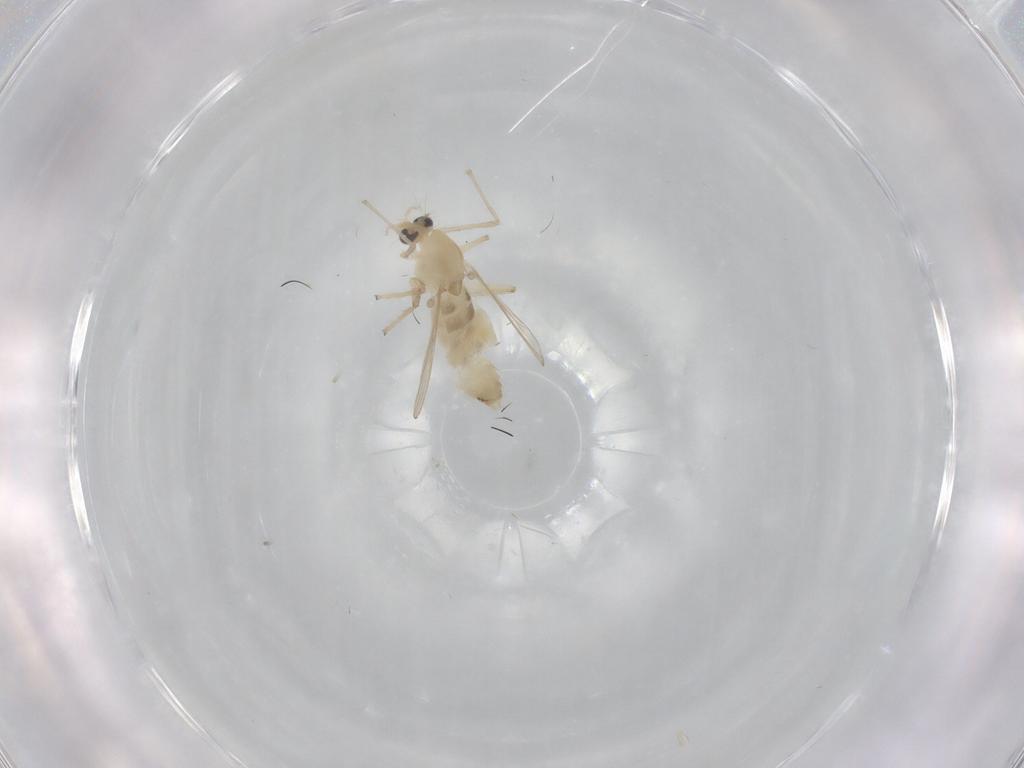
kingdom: Animalia
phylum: Arthropoda
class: Insecta
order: Diptera
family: Chironomidae
